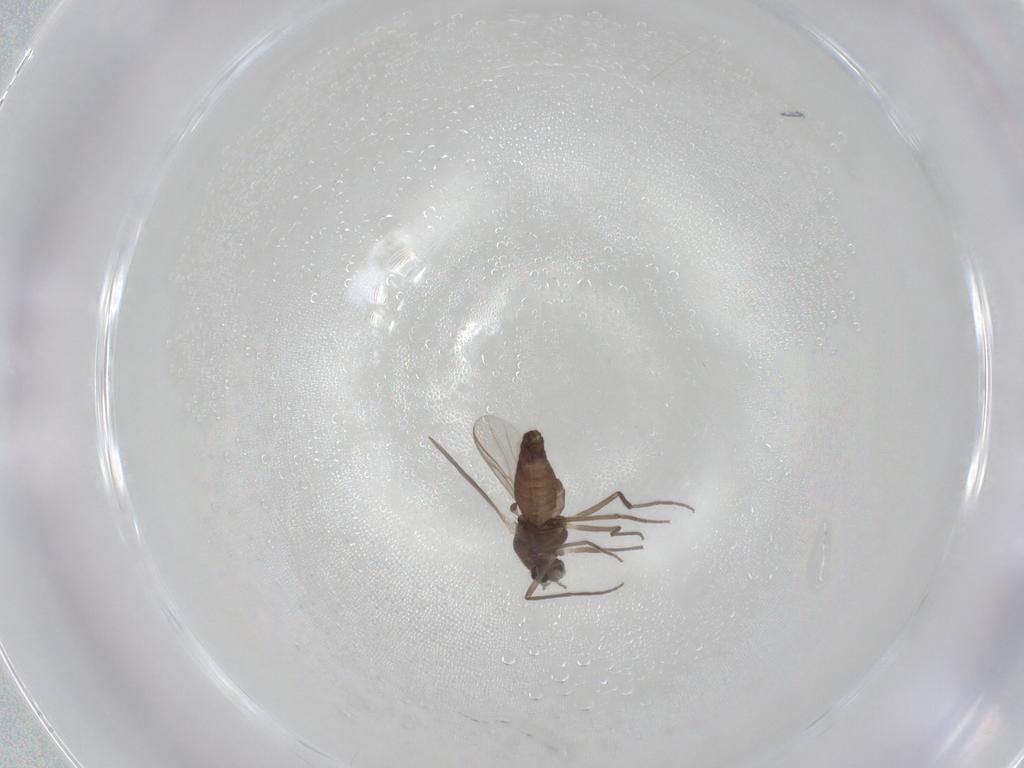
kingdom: Animalia
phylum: Arthropoda
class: Insecta
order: Diptera
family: Chironomidae
